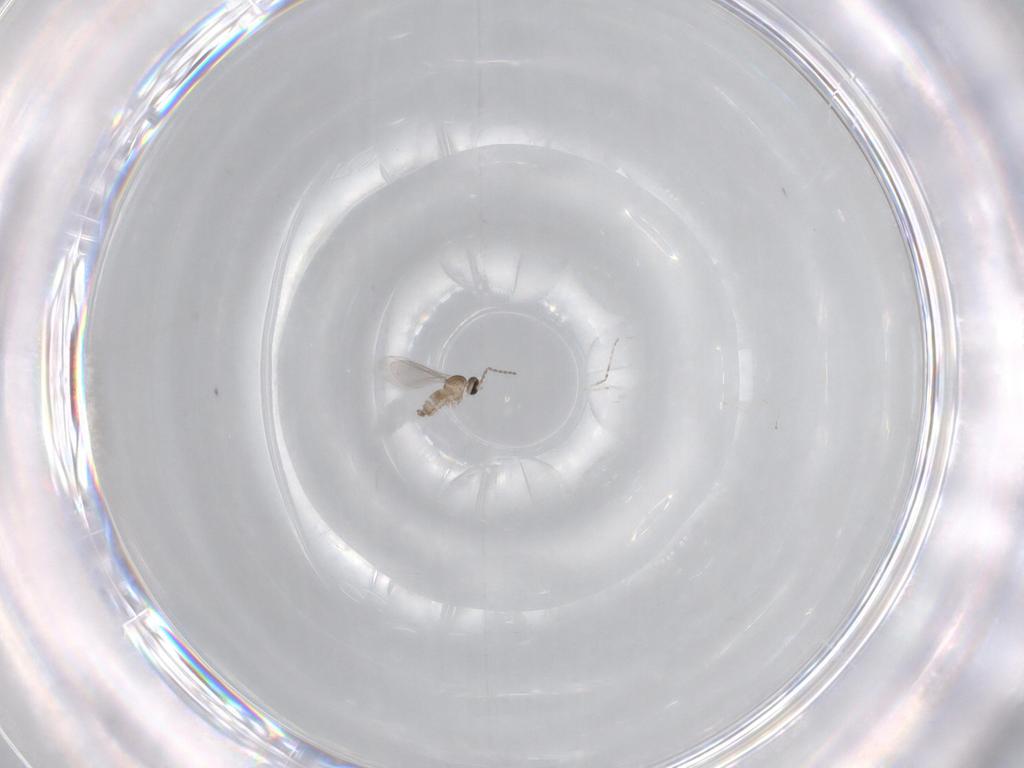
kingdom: Animalia
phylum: Arthropoda
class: Insecta
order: Diptera
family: Cecidomyiidae
